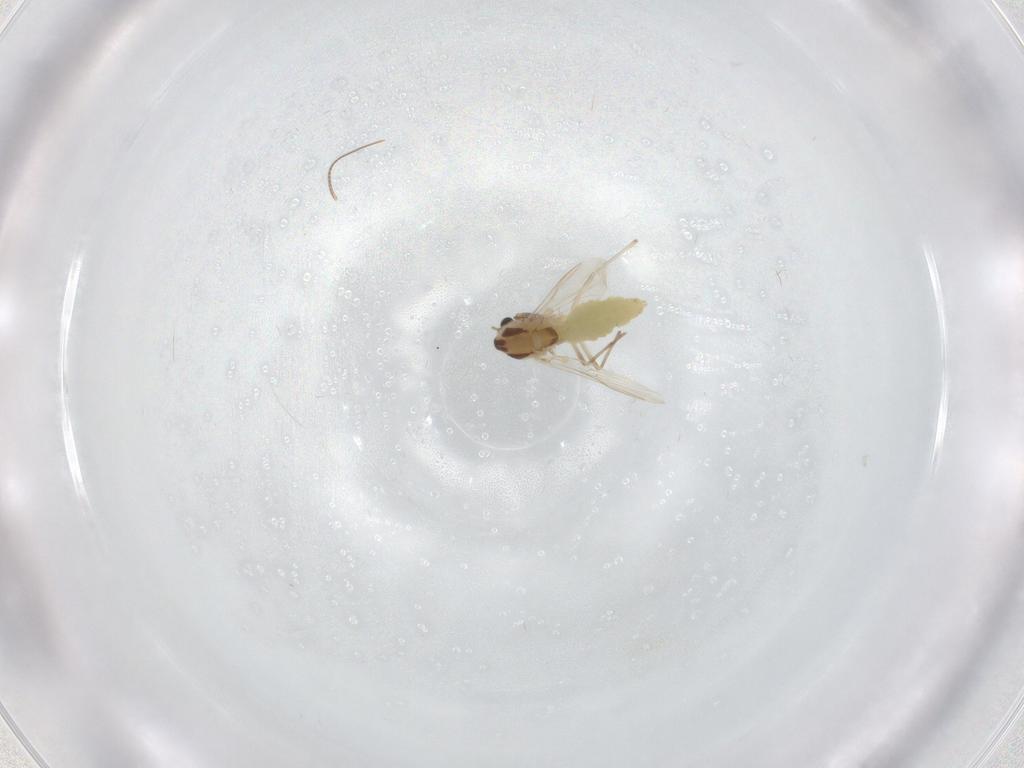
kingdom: Animalia
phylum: Arthropoda
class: Insecta
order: Diptera
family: Chironomidae
